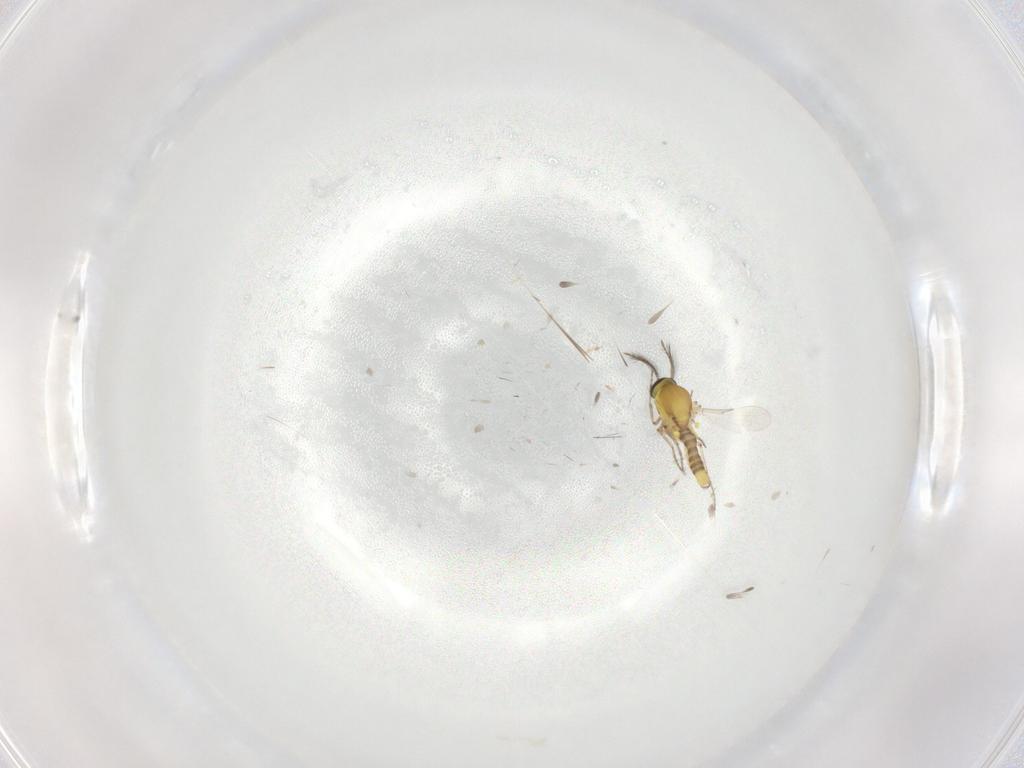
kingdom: Animalia
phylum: Arthropoda
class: Insecta
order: Diptera
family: Ceratopogonidae
